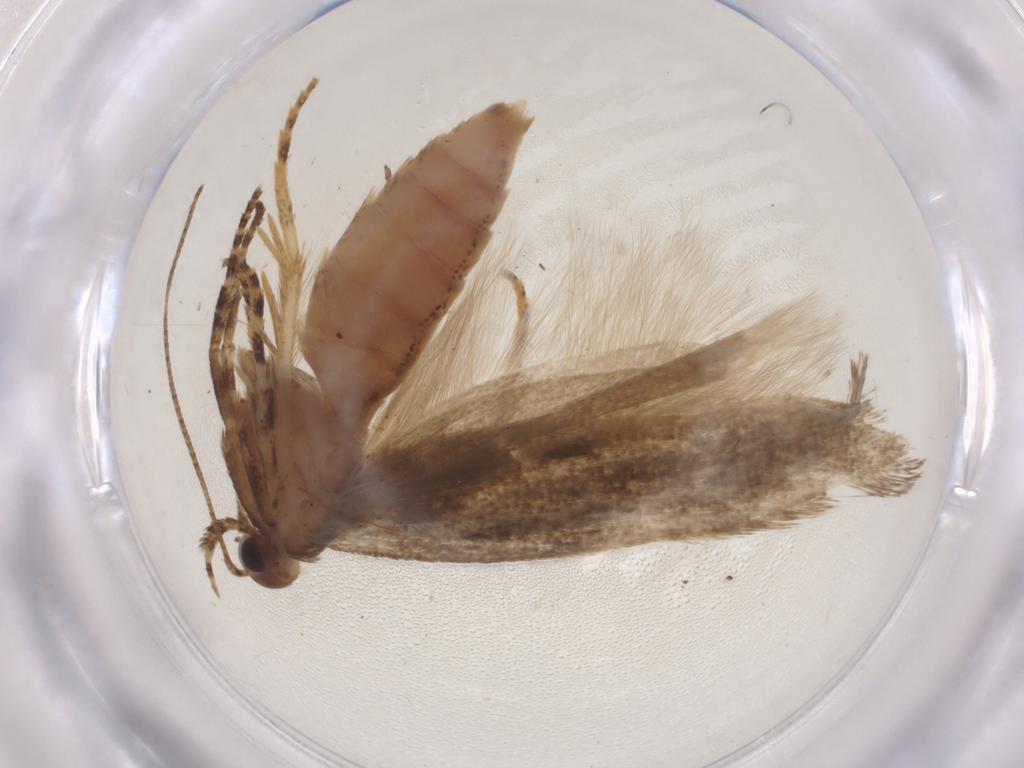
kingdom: Animalia
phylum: Arthropoda
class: Insecta
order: Lepidoptera
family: Gelechiidae
